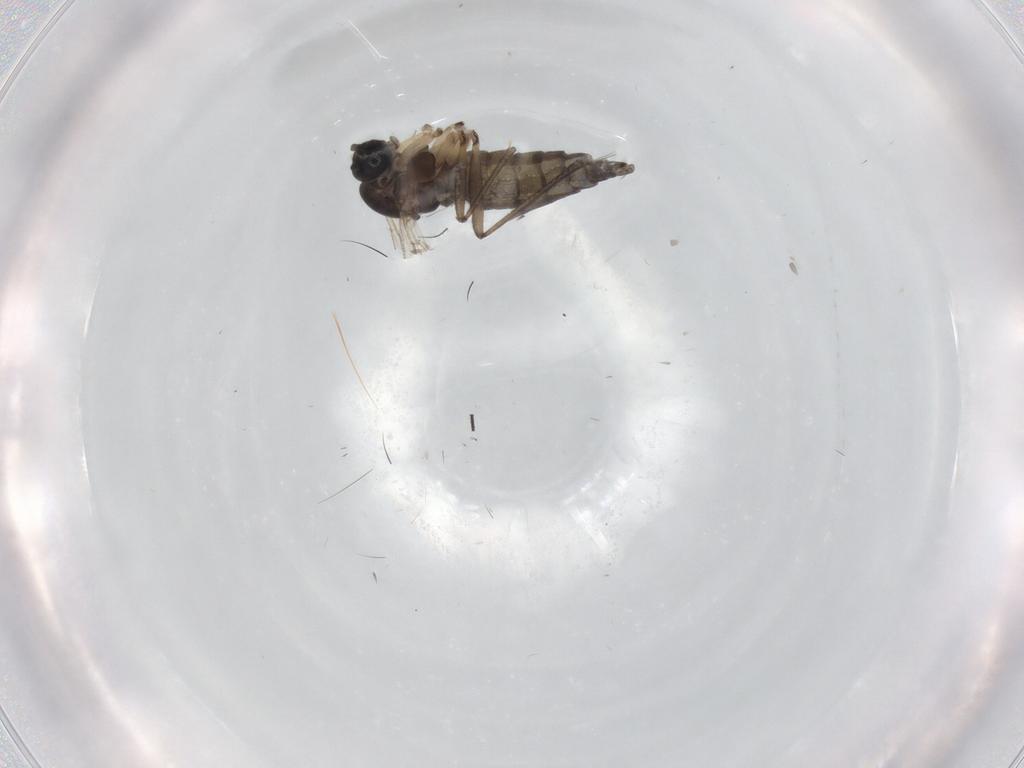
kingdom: Animalia
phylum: Arthropoda
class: Insecta
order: Diptera
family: Sciaridae
